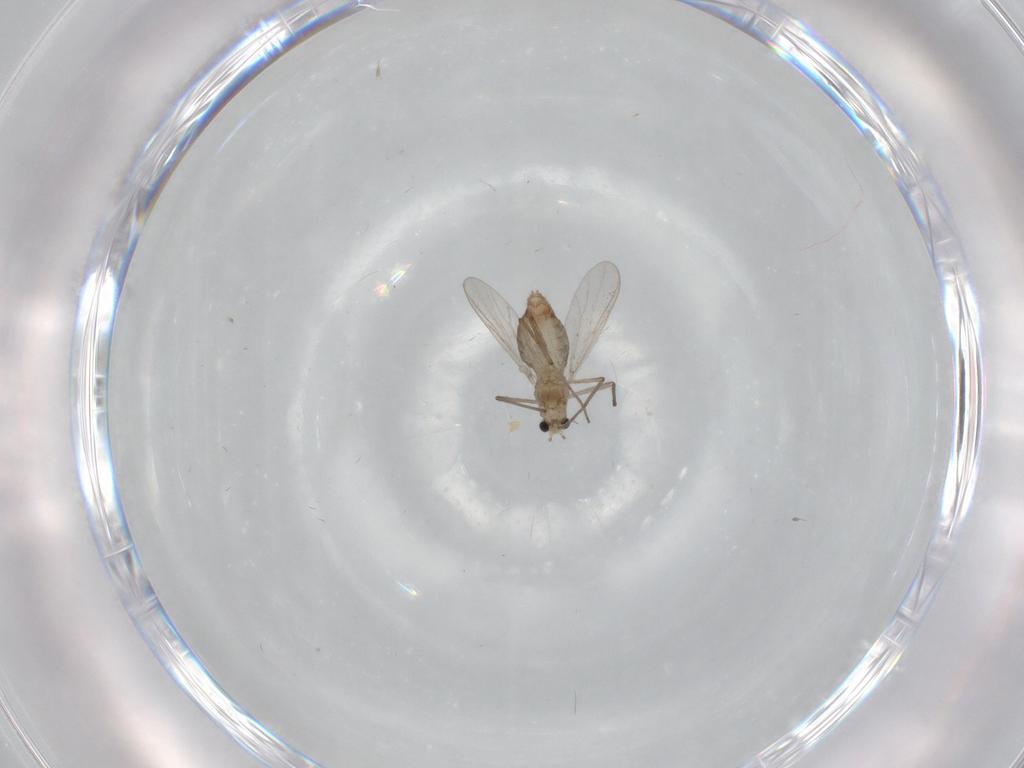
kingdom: Animalia
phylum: Arthropoda
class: Insecta
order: Diptera
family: Chironomidae
